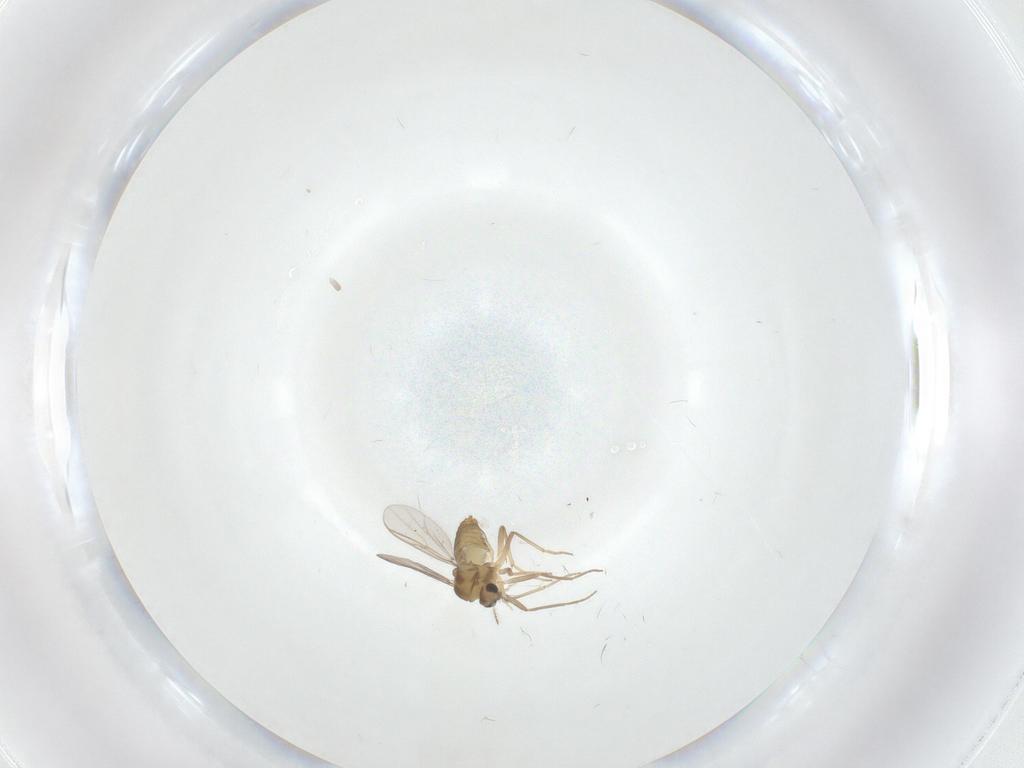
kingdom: Animalia
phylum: Arthropoda
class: Insecta
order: Diptera
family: Chironomidae
